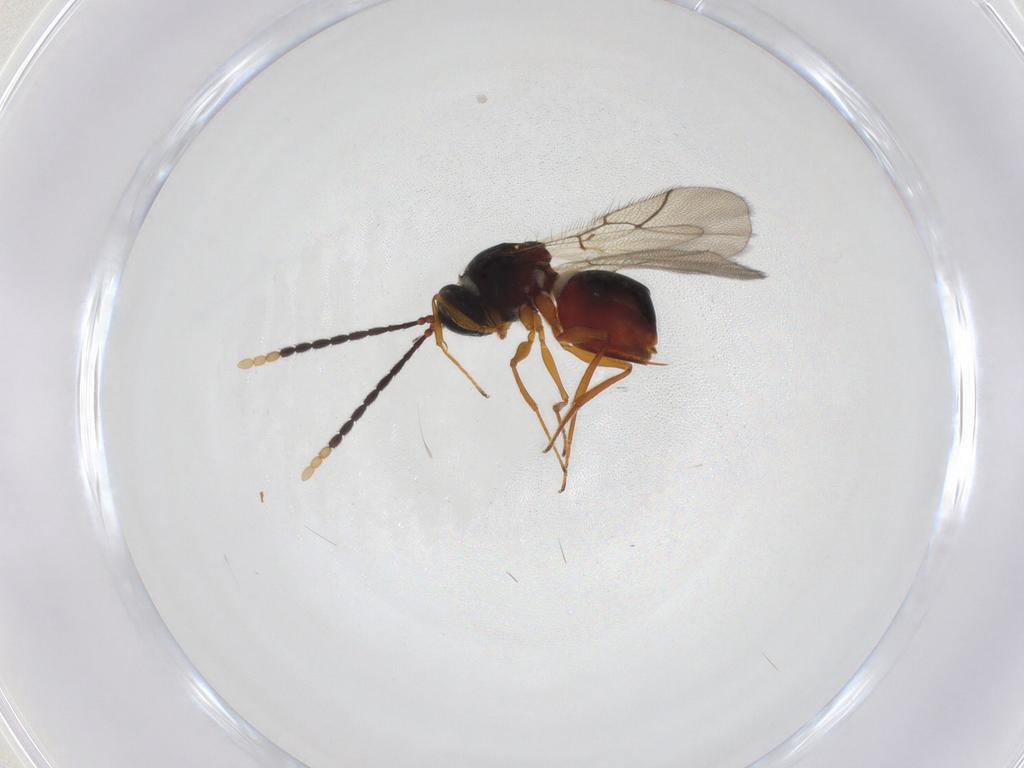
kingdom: Animalia
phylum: Arthropoda
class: Insecta
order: Hymenoptera
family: Figitidae
